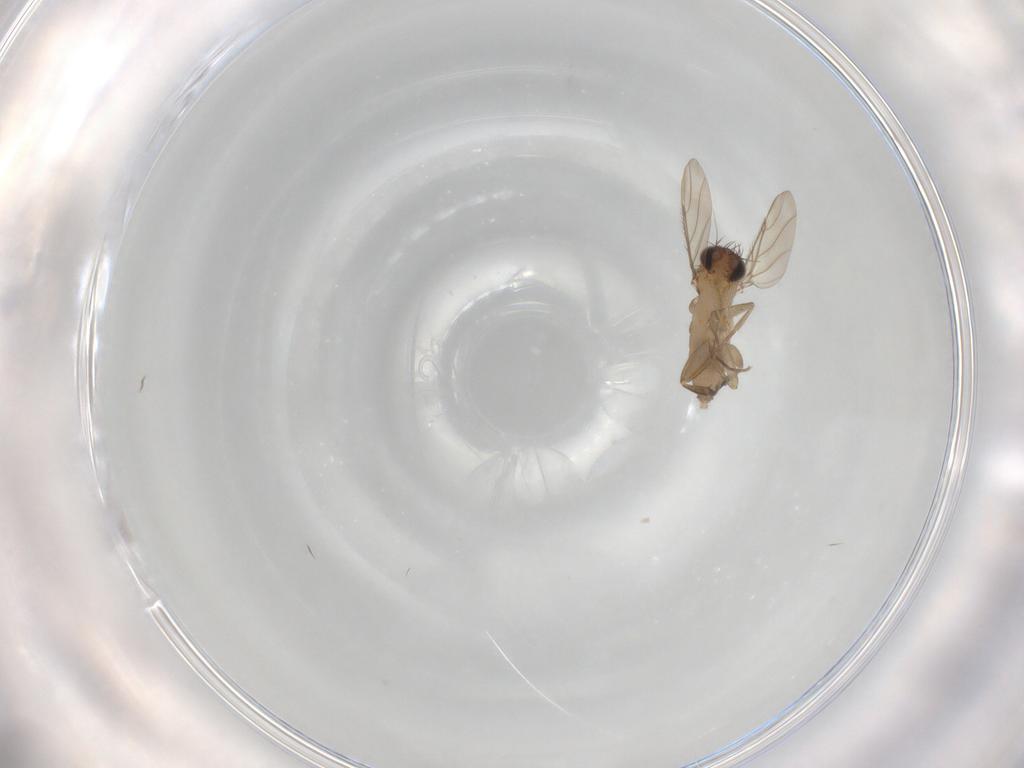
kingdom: Animalia
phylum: Arthropoda
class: Insecta
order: Diptera
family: Phoridae
